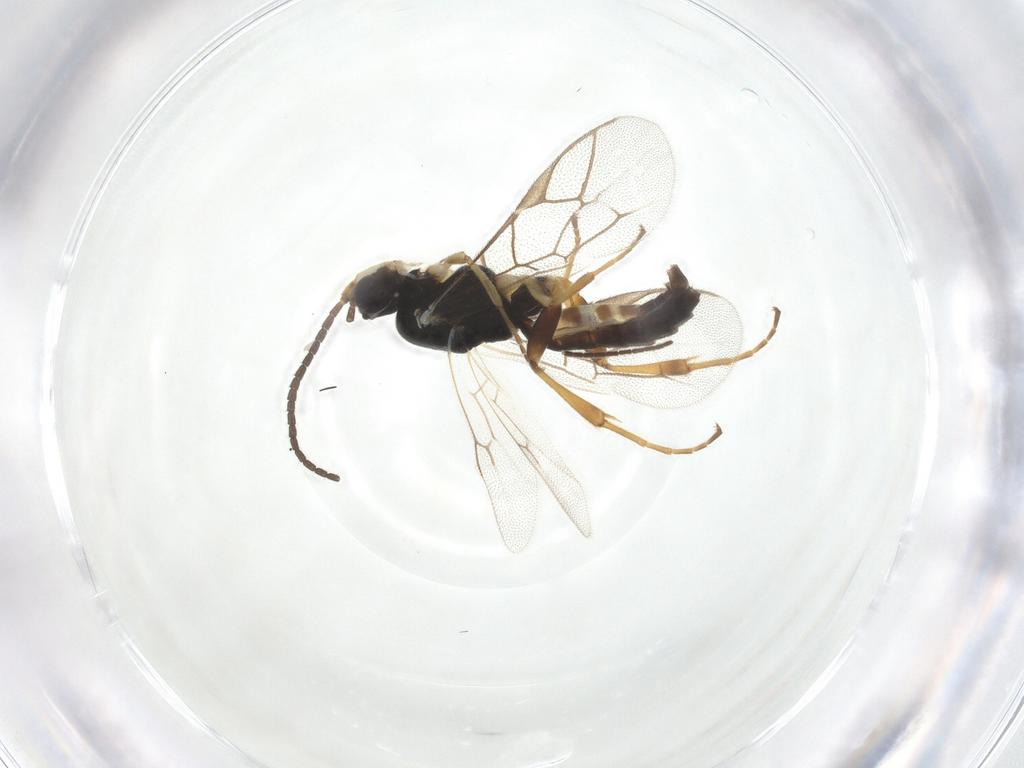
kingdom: Animalia
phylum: Arthropoda
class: Insecta
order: Hymenoptera
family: Ichneumonidae
